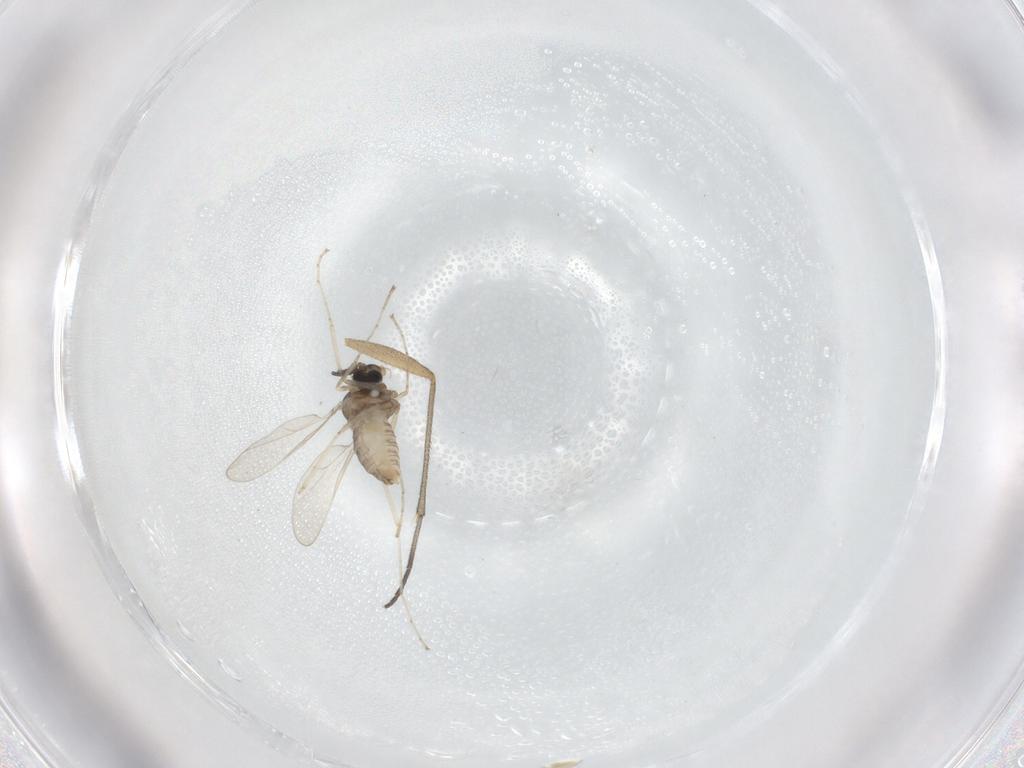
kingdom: Animalia
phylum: Arthropoda
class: Insecta
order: Diptera
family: Cecidomyiidae
